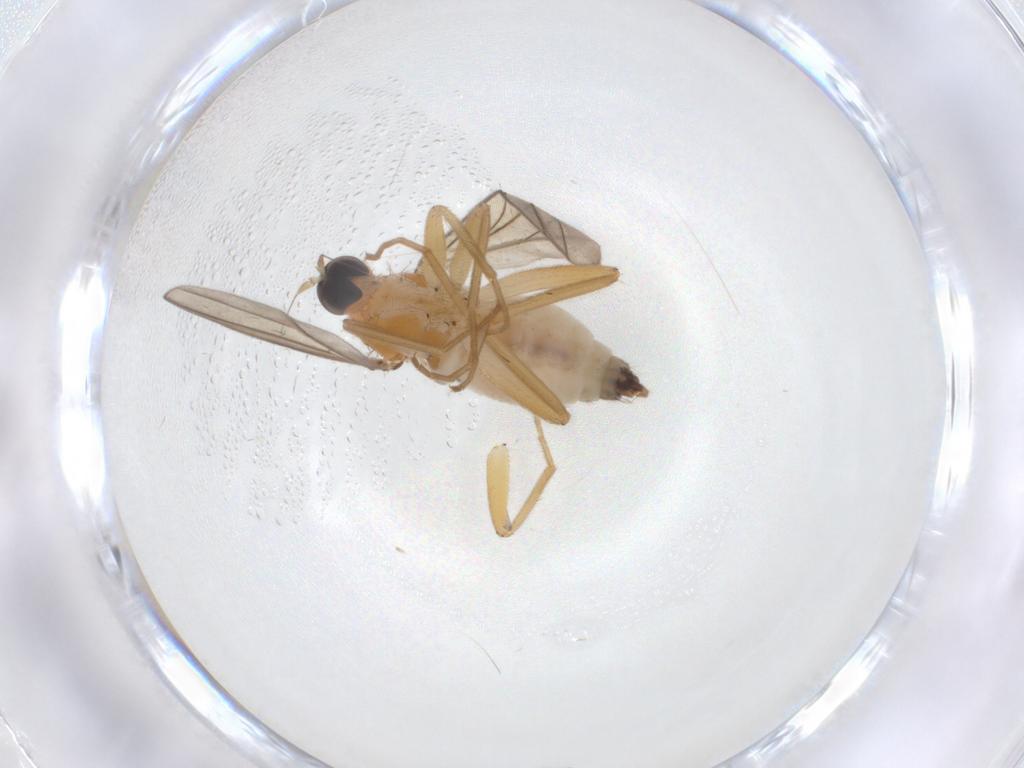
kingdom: Animalia
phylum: Arthropoda
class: Insecta
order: Diptera
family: Hybotidae
